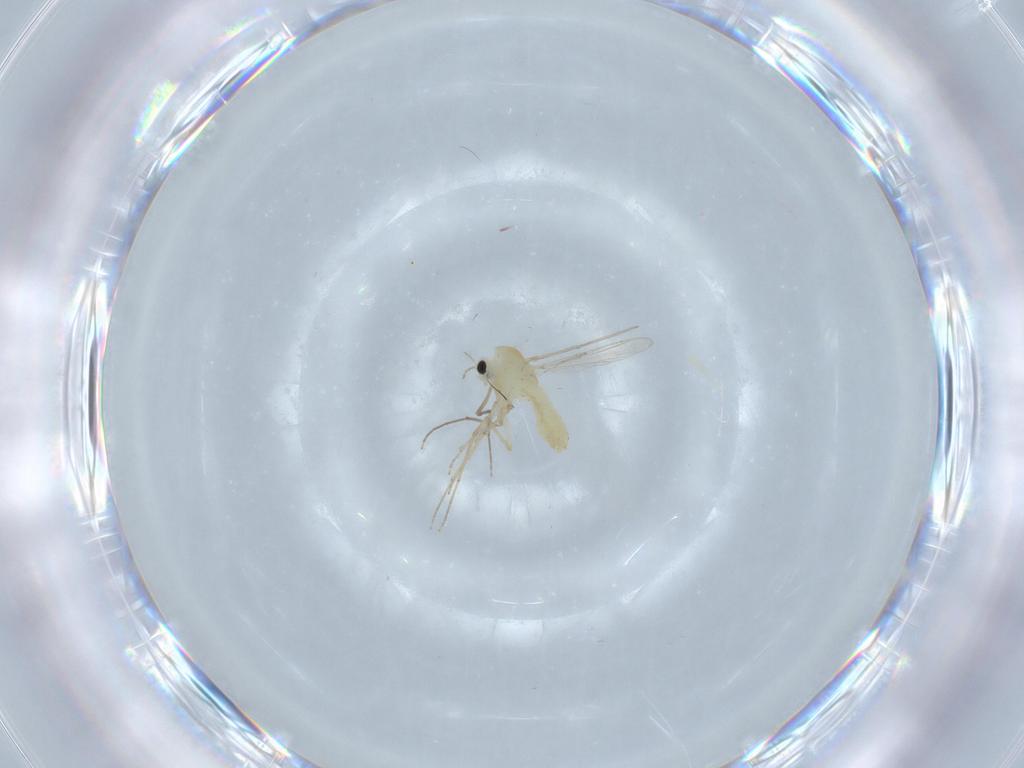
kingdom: Animalia
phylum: Arthropoda
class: Insecta
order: Diptera
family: Chironomidae
